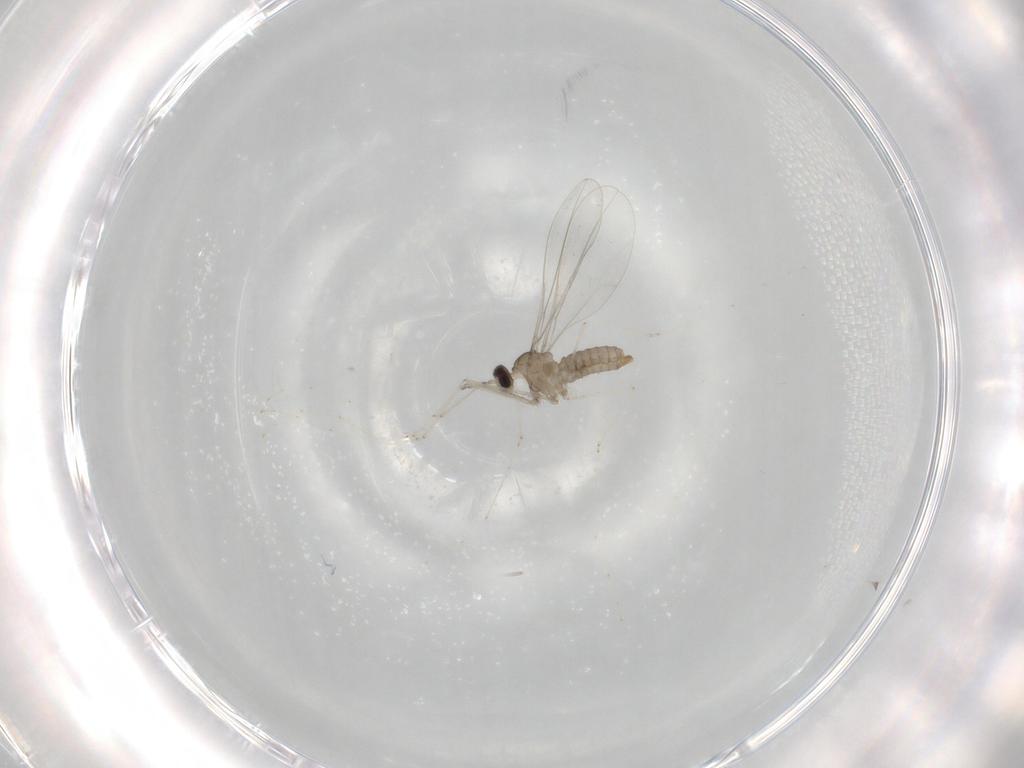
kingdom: Animalia
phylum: Arthropoda
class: Insecta
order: Diptera
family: Cecidomyiidae
